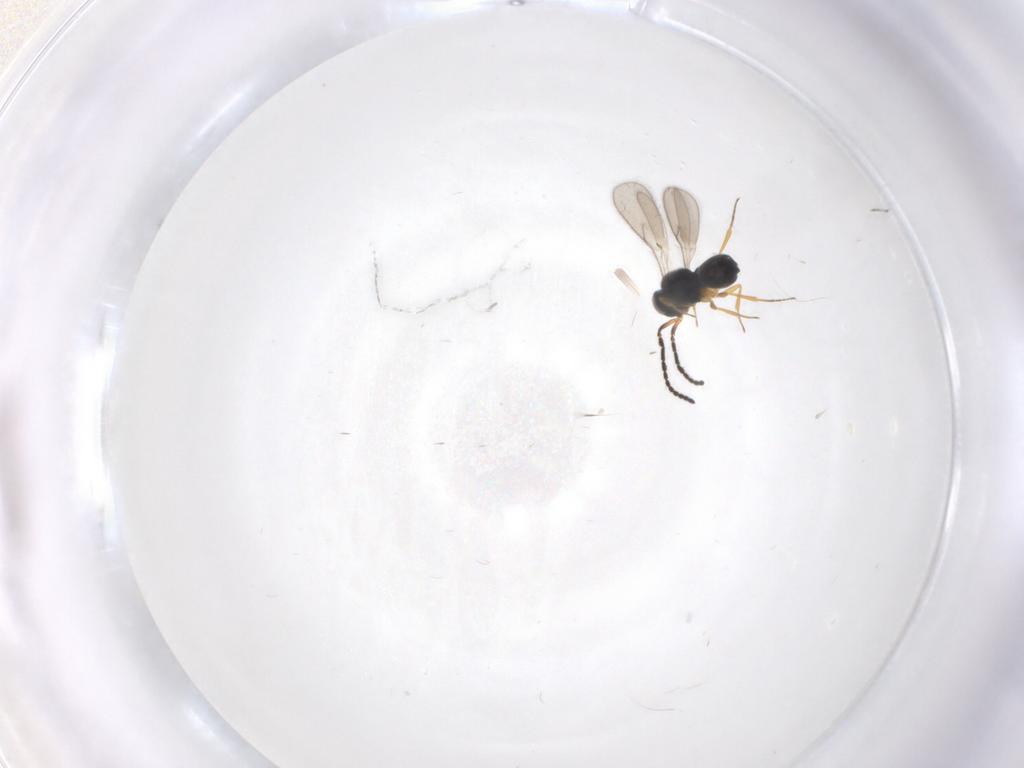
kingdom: Animalia
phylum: Arthropoda
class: Insecta
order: Hymenoptera
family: Scelionidae
